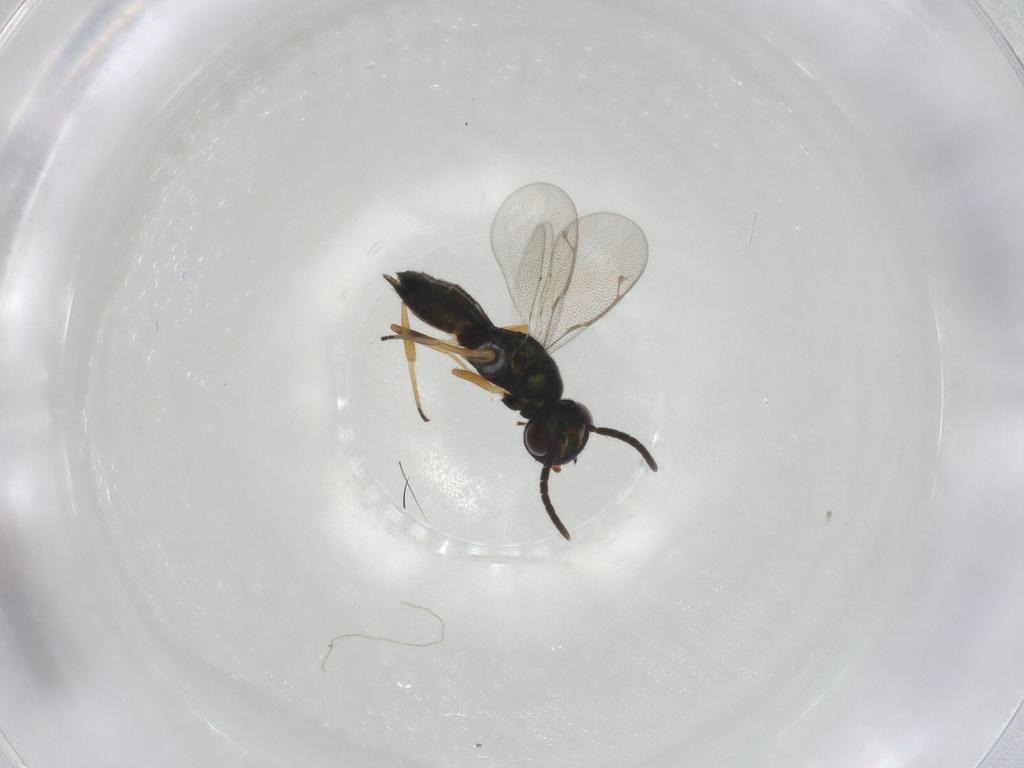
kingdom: Animalia
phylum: Arthropoda
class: Insecta
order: Hymenoptera
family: Eupelmidae
